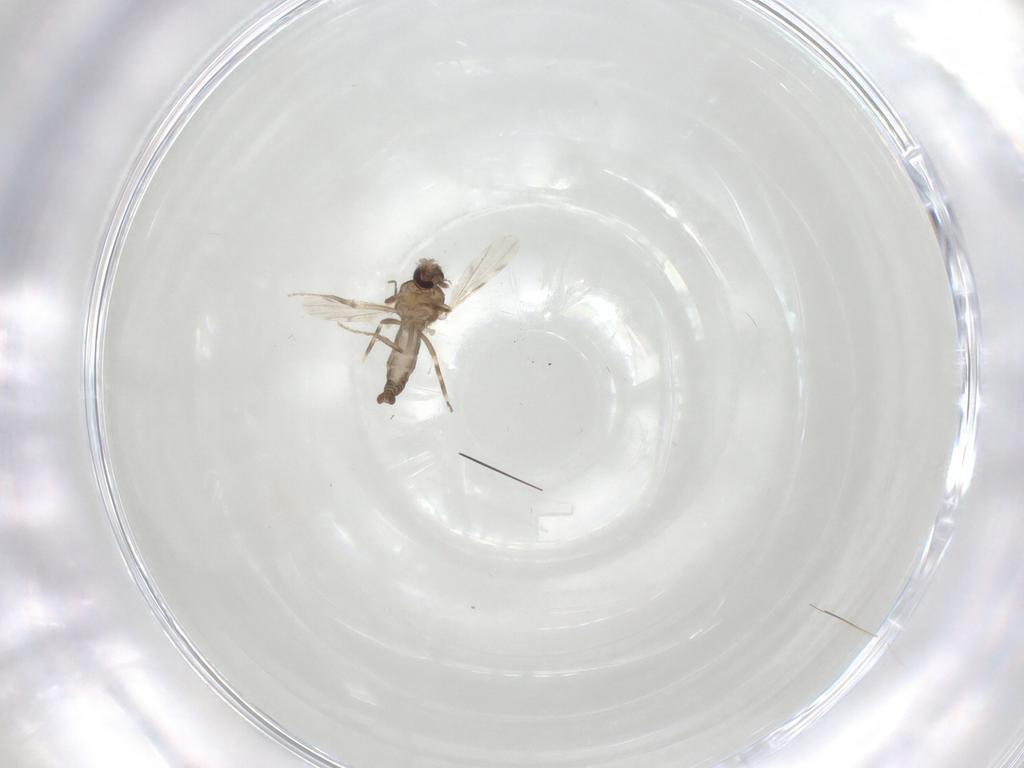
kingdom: Animalia
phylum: Arthropoda
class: Insecta
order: Diptera
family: Ceratopogonidae
